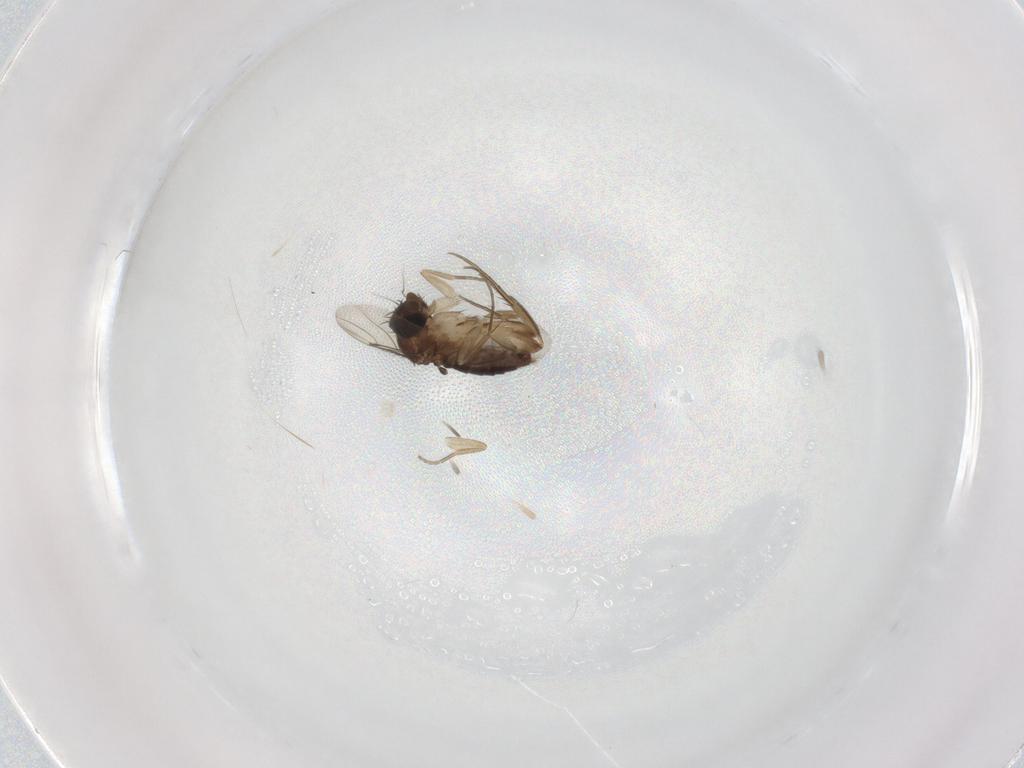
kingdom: Animalia
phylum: Arthropoda
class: Insecta
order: Diptera
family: Phoridae
